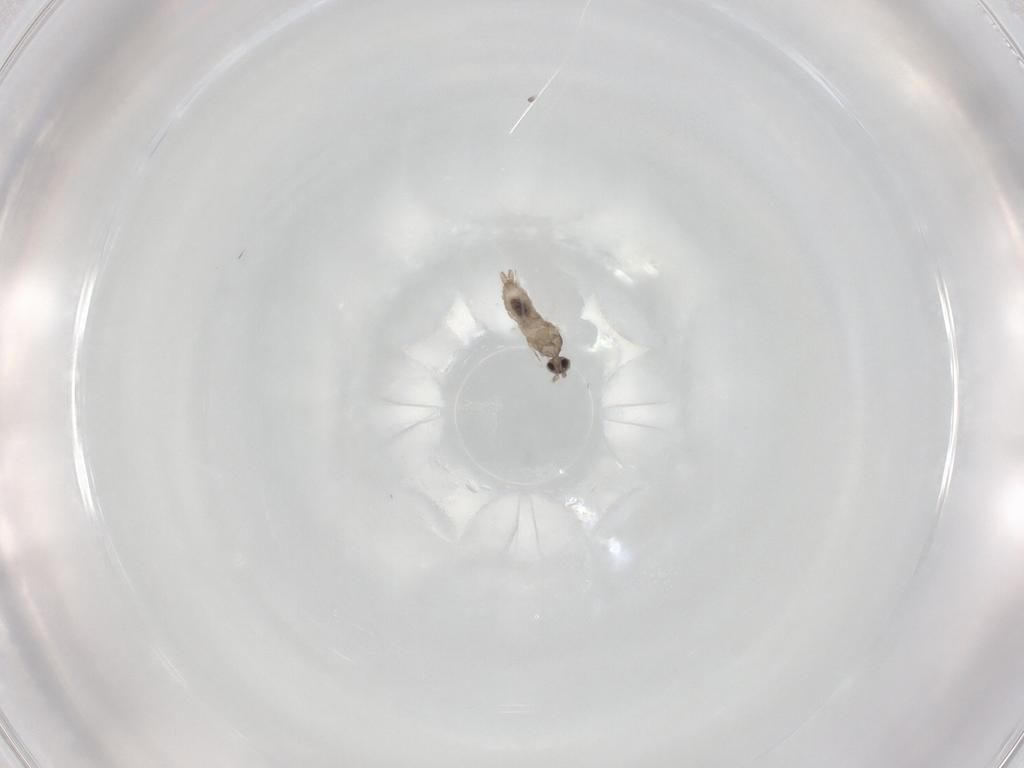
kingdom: Animalia
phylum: Arthropoda
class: Insecta
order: Diptera
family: Cecidomyiidae
